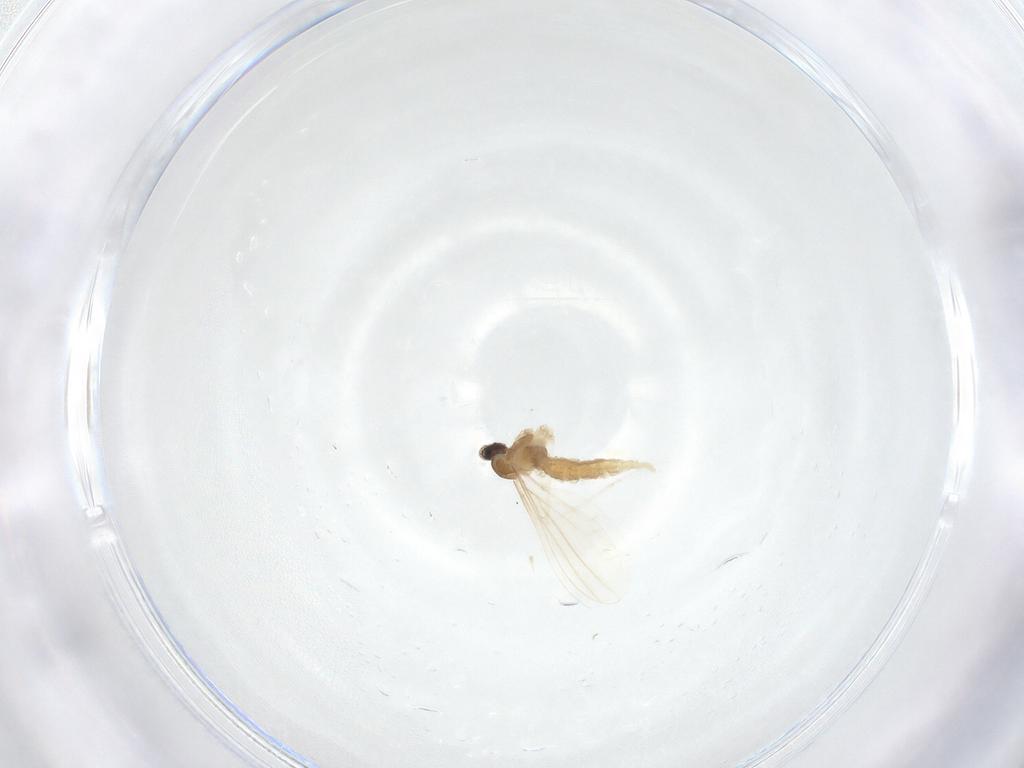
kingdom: Animalia
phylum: Arthropoda
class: Insecta
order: Diptera
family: Cecidomyiidae
